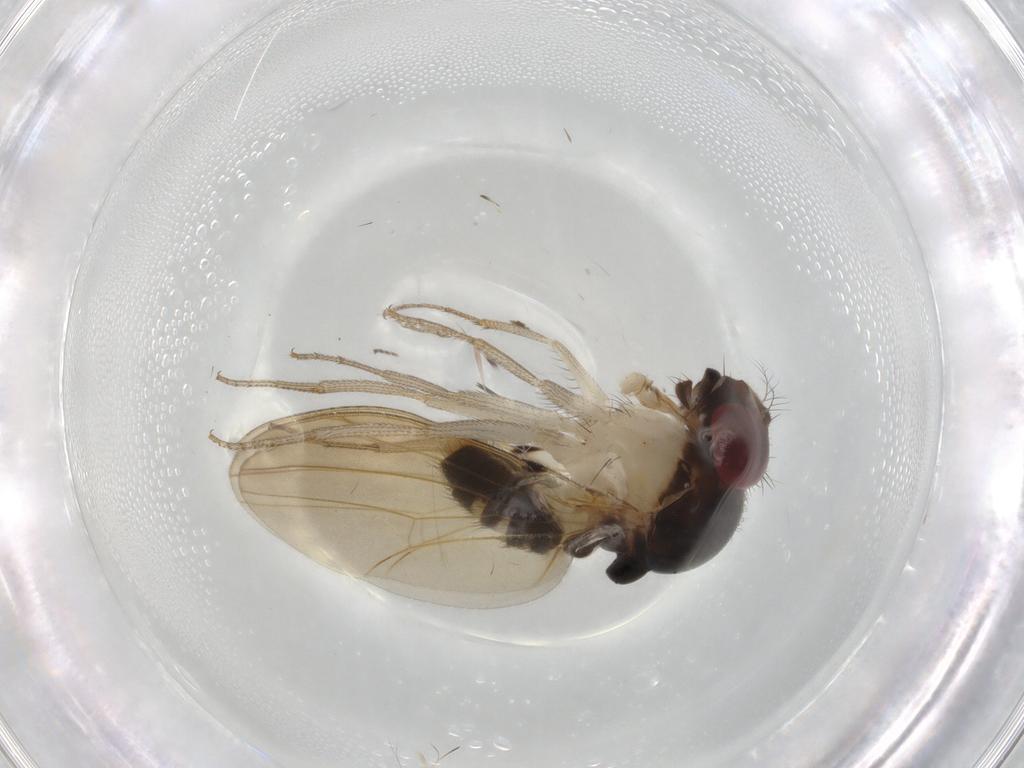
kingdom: Animalia
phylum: Arthropoda
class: Insecta
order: Diptera
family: Drosophilidae
